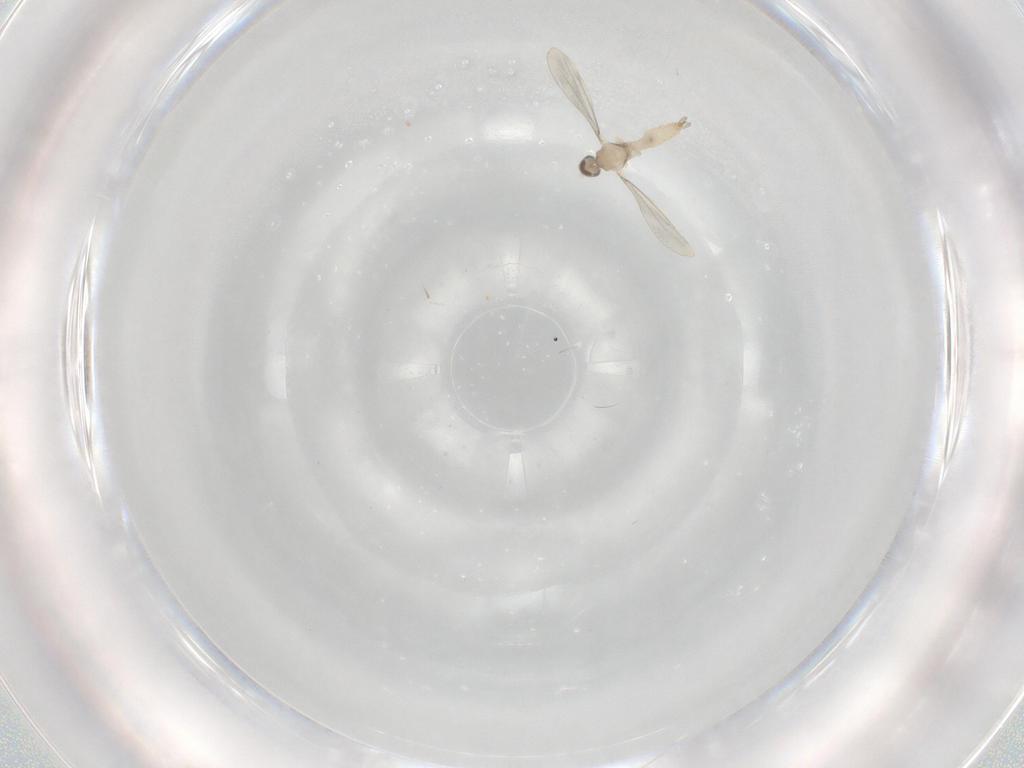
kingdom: Animalia
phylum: Arthropoda
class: Insecta
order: Diptera
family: Cecidomyiidae
